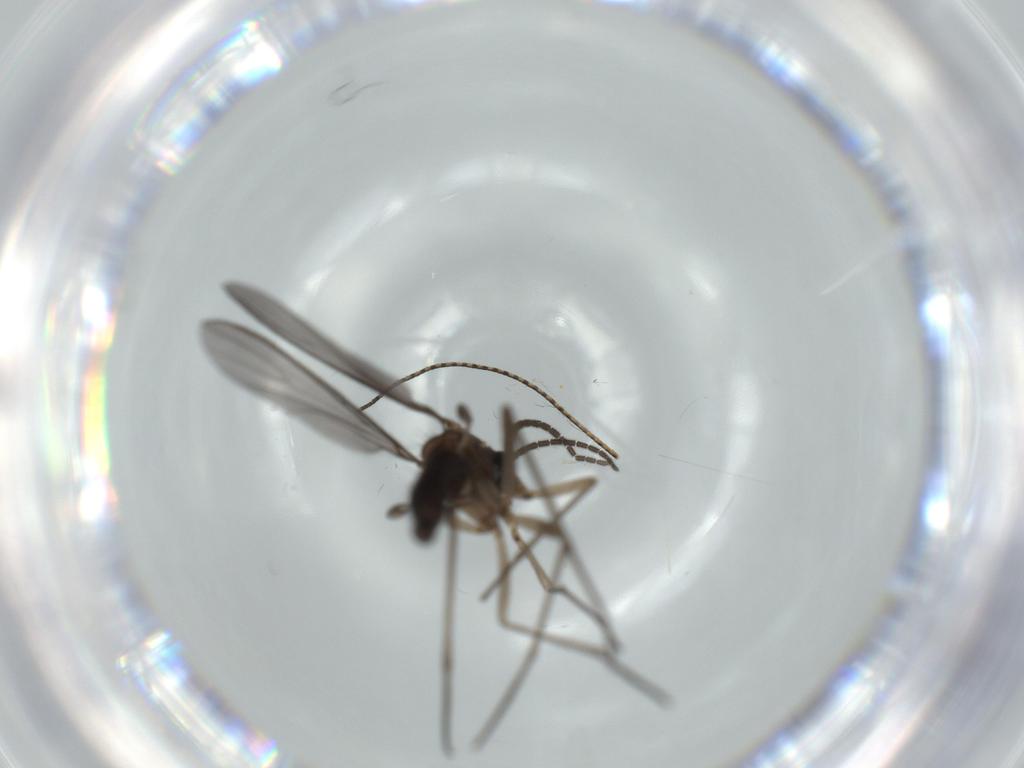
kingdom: Animalia
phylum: Arthropoda
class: Insecta
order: Diptera
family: Sciaridae
